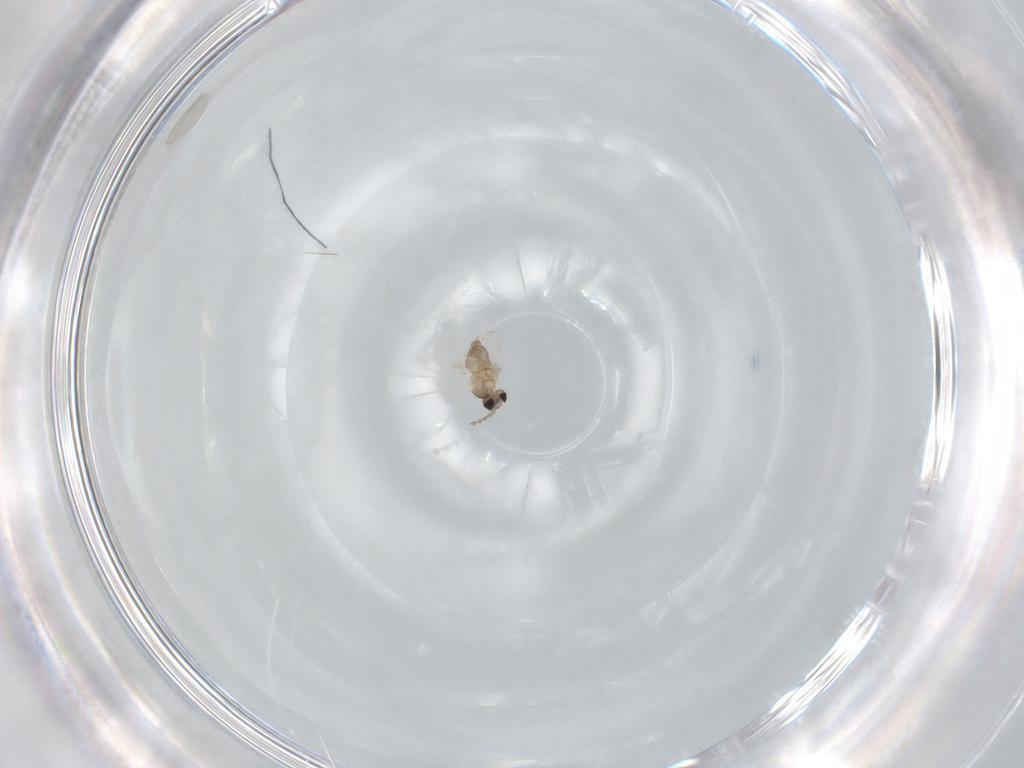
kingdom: Animalia
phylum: Arthropoda
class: Insecta
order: Diptera
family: Cecidomyiidae
